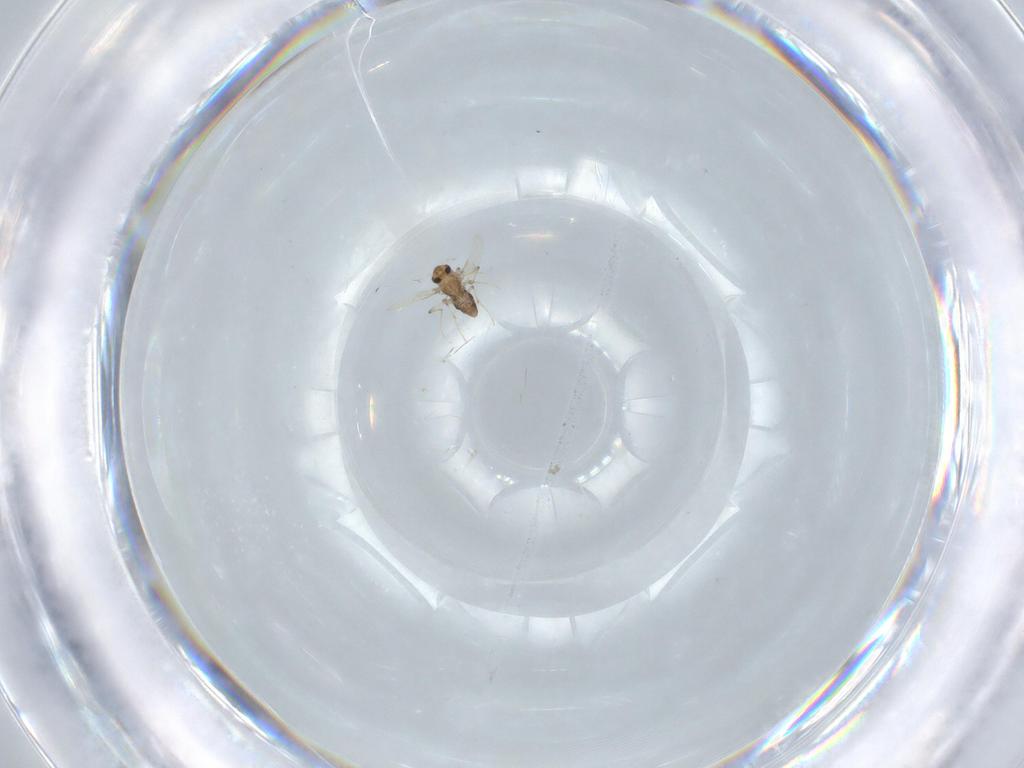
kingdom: Animalia
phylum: Arthropoda
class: Insecta
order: Diptera
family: Chironomidae
